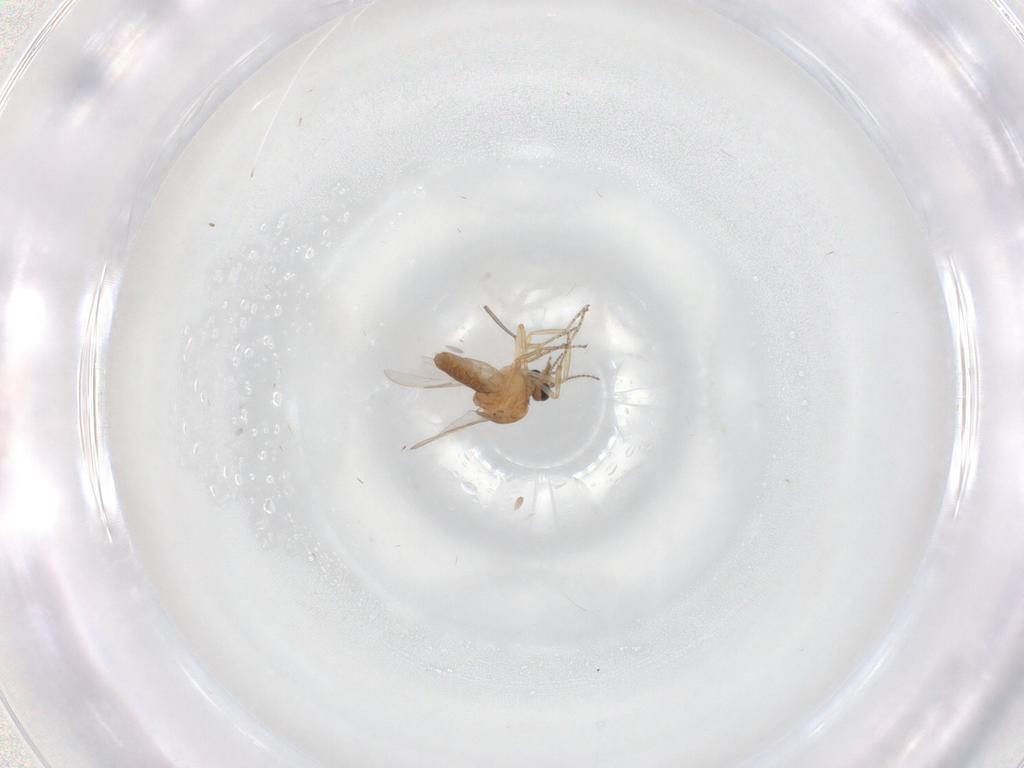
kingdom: Animalia
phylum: Arthropoda
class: Insecta
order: Diptera
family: Ceratopogonidae
